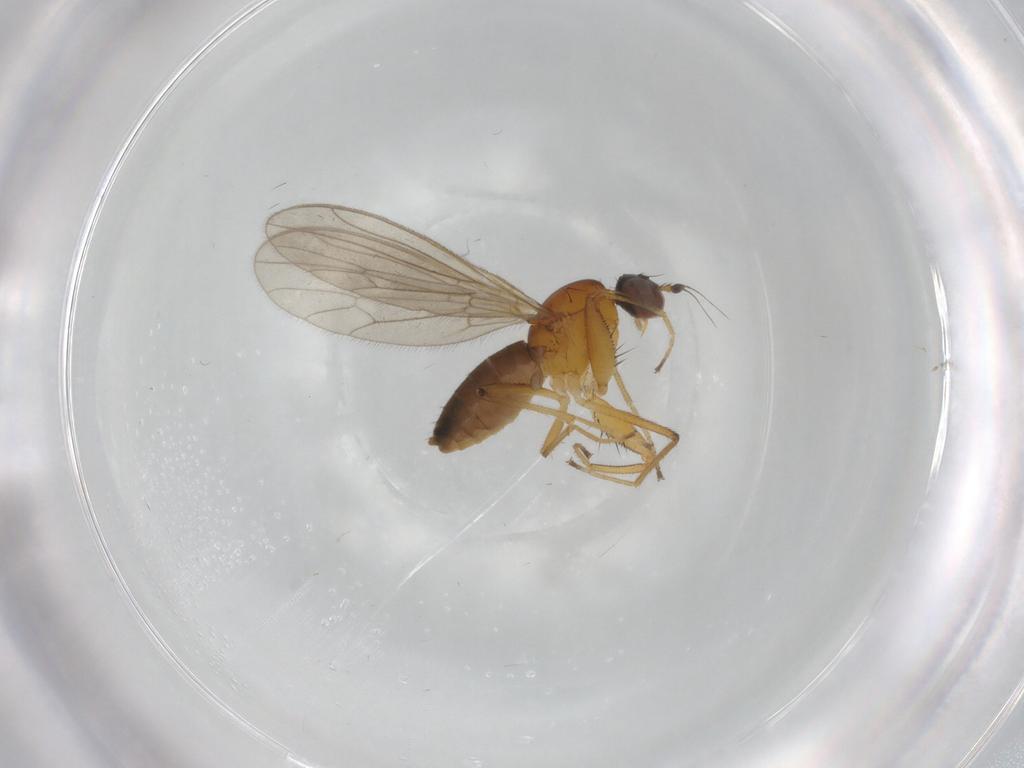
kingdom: Animalia
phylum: Arthropoda
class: Insecta
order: Diptera
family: Empididae
